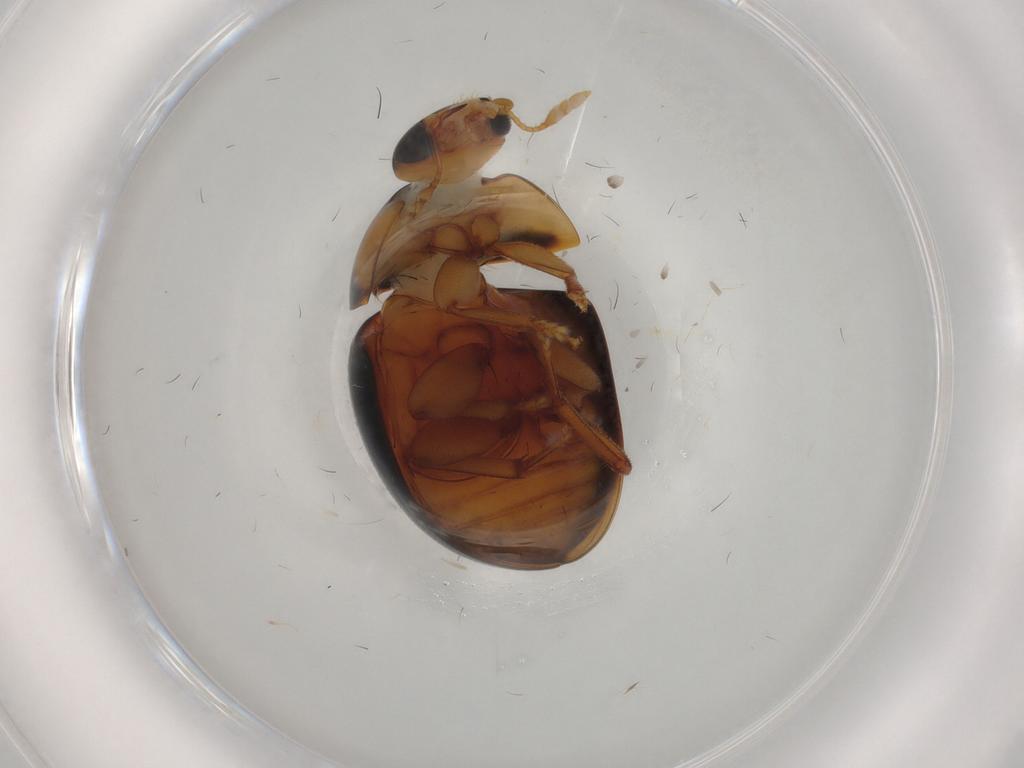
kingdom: Animalia
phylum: Arthropoda
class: Insecta
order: Coleoptera
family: Phalacridae
